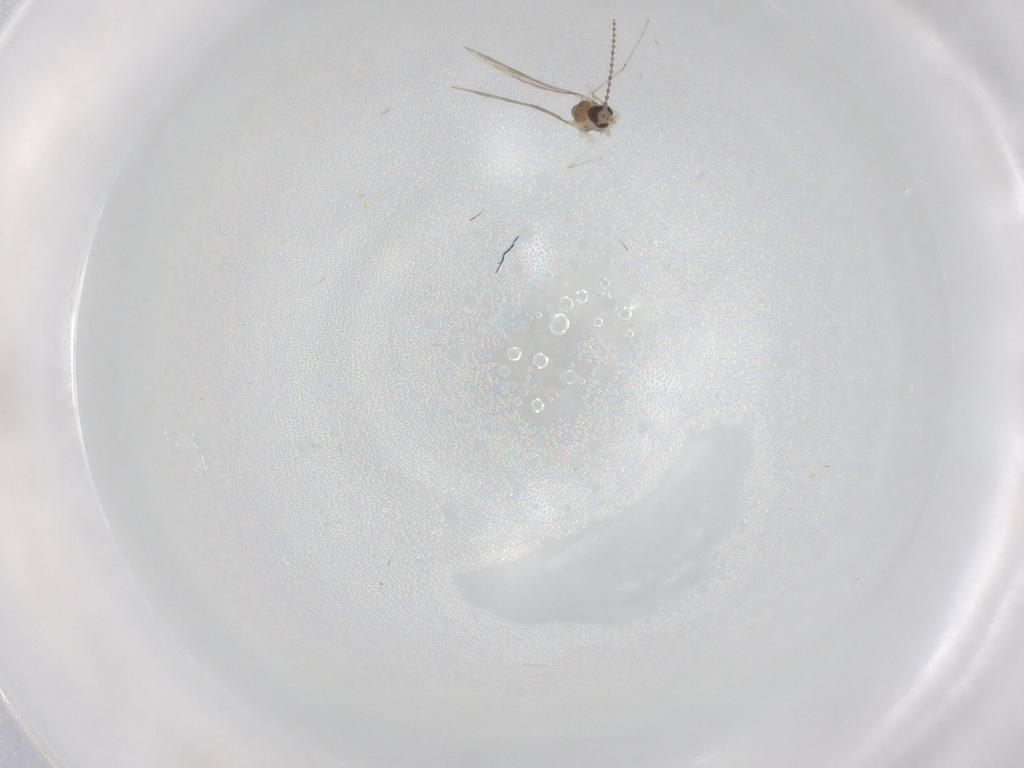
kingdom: Animalia
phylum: Arthropoda
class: Insecta
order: Diptera
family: Cecidomyiidae
